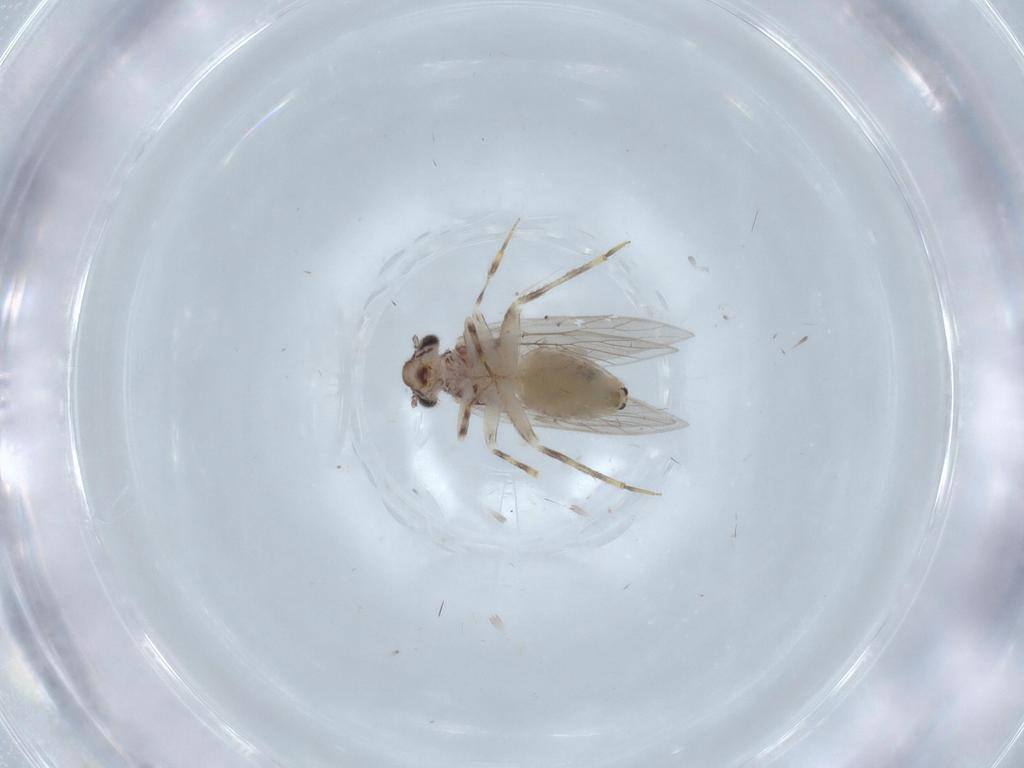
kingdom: Animalia
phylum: Arthropoda
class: Insecta
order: Psocodea
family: Lepidopsocidae
